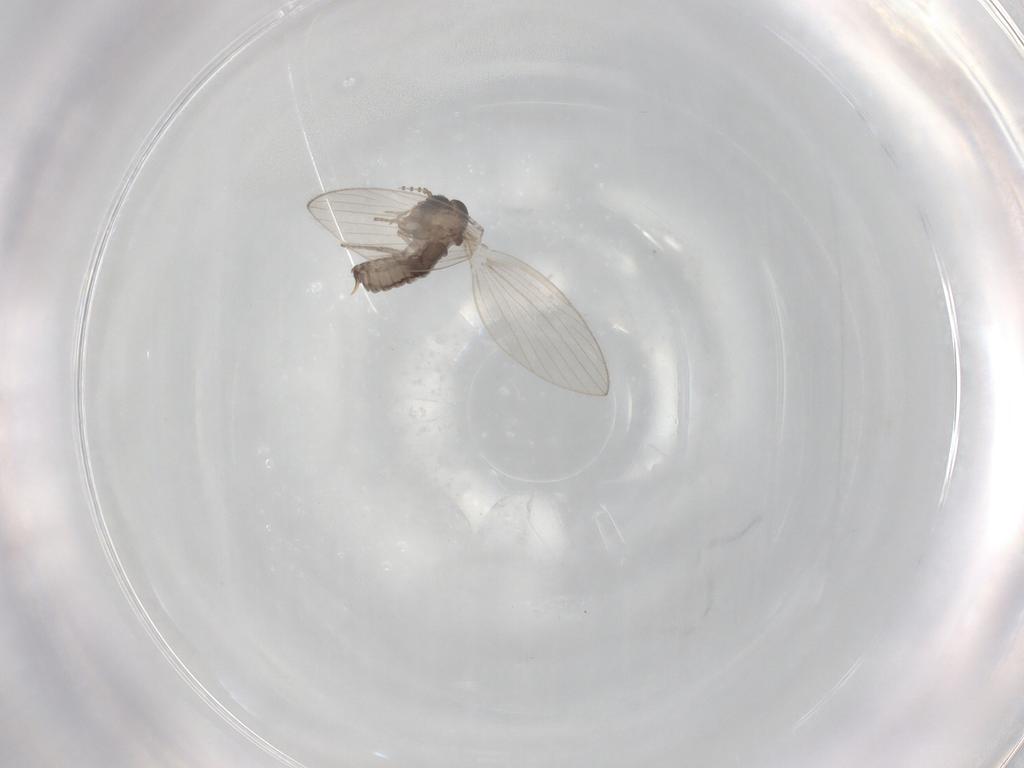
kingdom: Animalia
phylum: Arthropoda
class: Insecta
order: Diptera
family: Psychodidae
